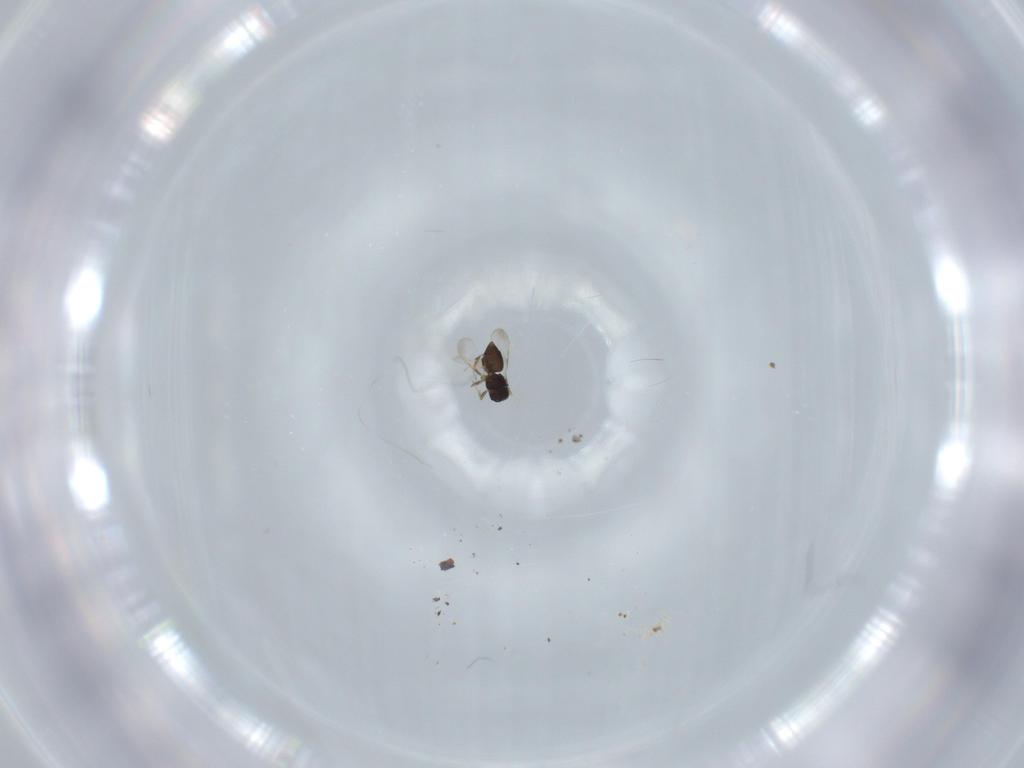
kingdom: Animalia
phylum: Arthropoda
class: Insecta
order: Hymenoptera
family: Ceraphronidae
